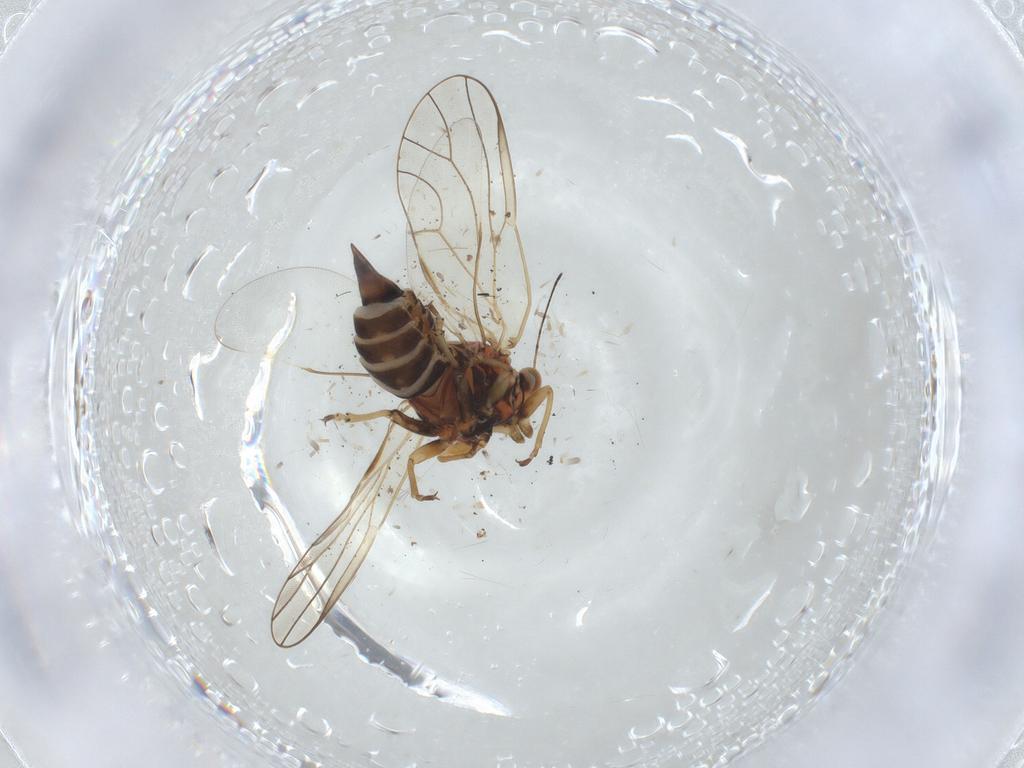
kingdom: Animalia
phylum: Arthropoda
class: Insecta
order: Hemiptera
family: Psyllidae
